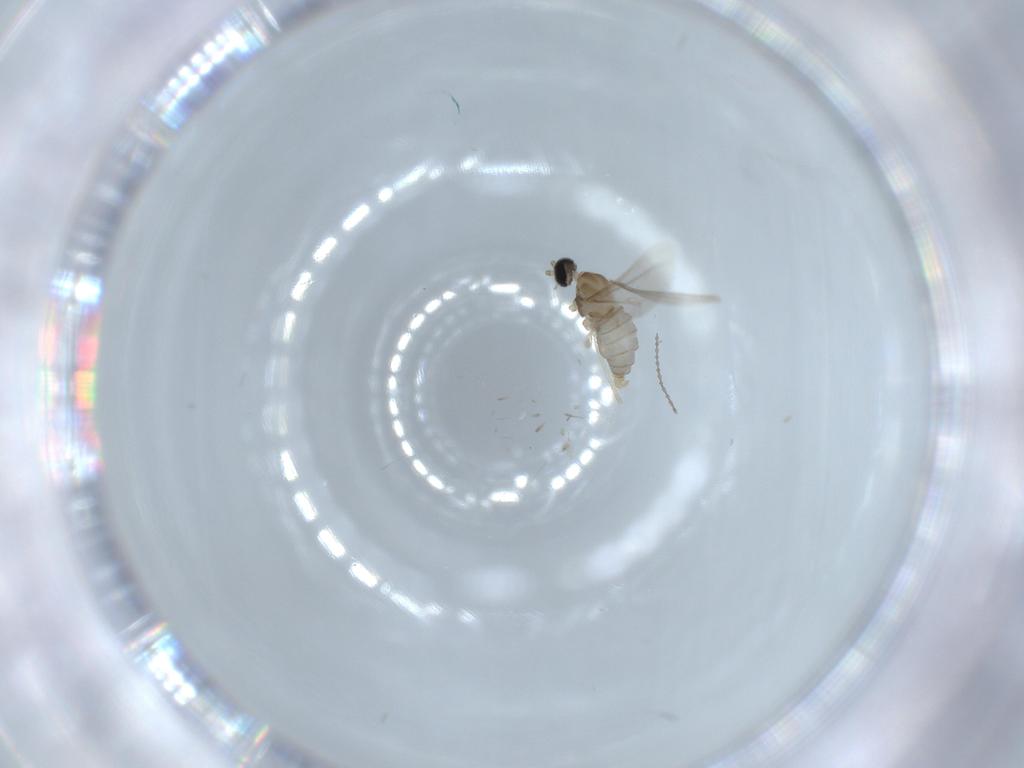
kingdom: Animalia
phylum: Arthropoda
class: Insecta
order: Diptera
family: Cecidomyiidae
